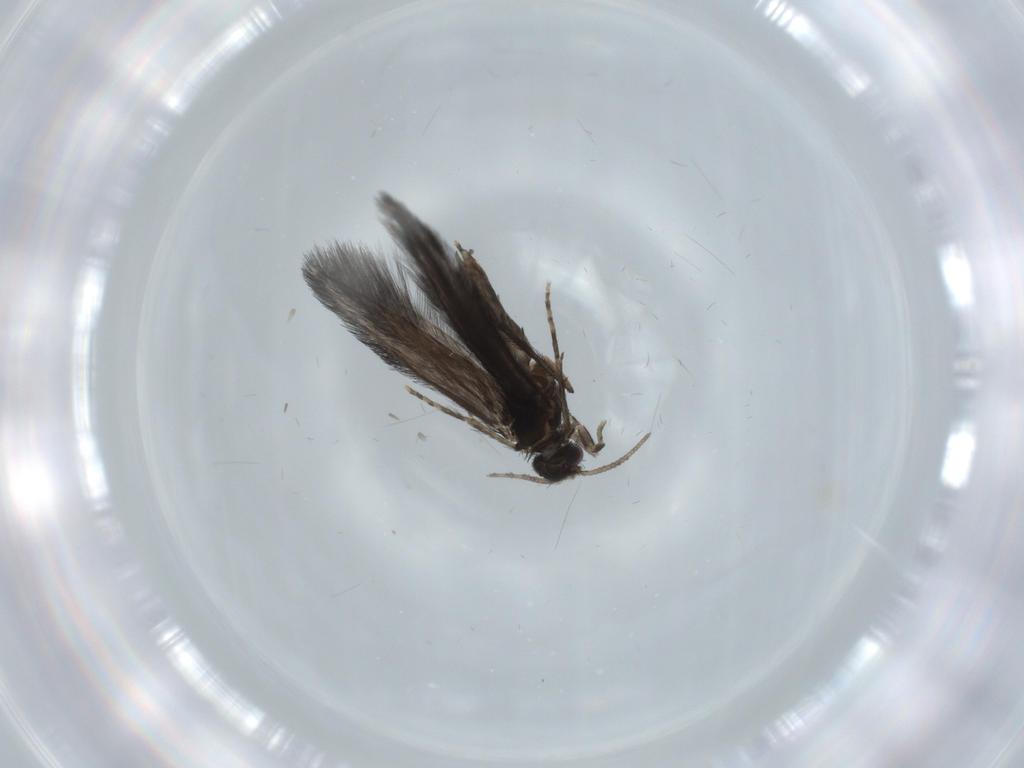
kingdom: Animalia
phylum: Arthropoda
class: Insecta
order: Trichoptera
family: Hydroptilidae
